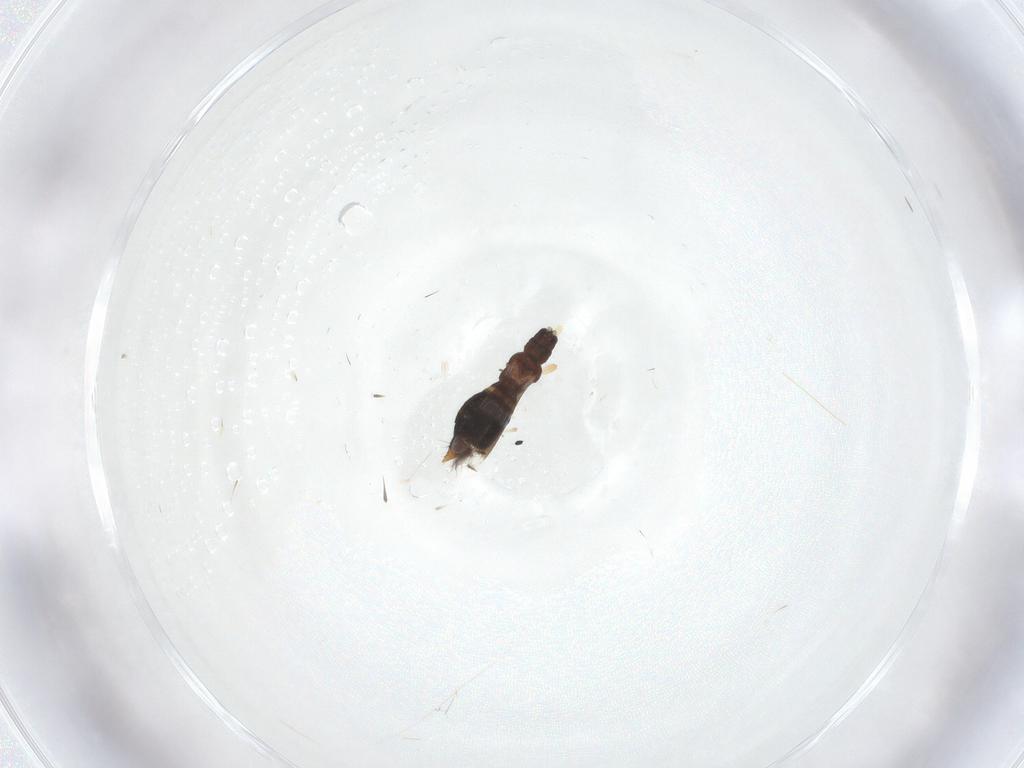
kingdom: Animalia
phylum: Arthropoda
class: Insecta
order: Thysanoptera
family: Aeolothripidae
